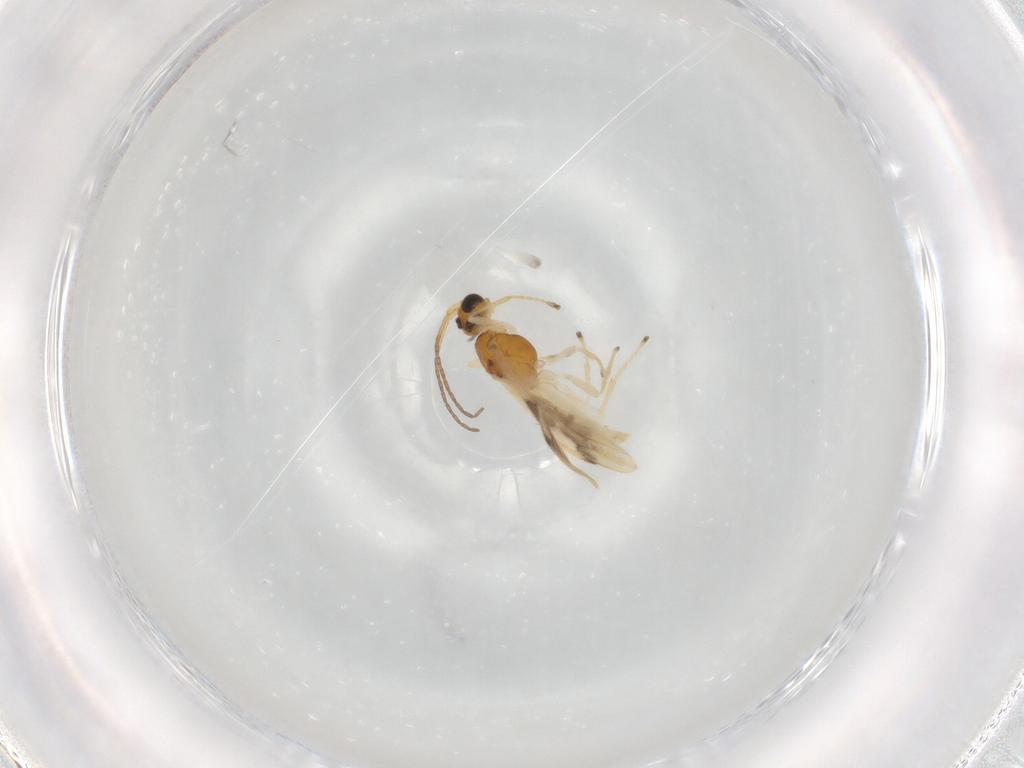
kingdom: Animalia
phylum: Arthropoda
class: Insecta
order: Hymenoptera
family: Braconidae
